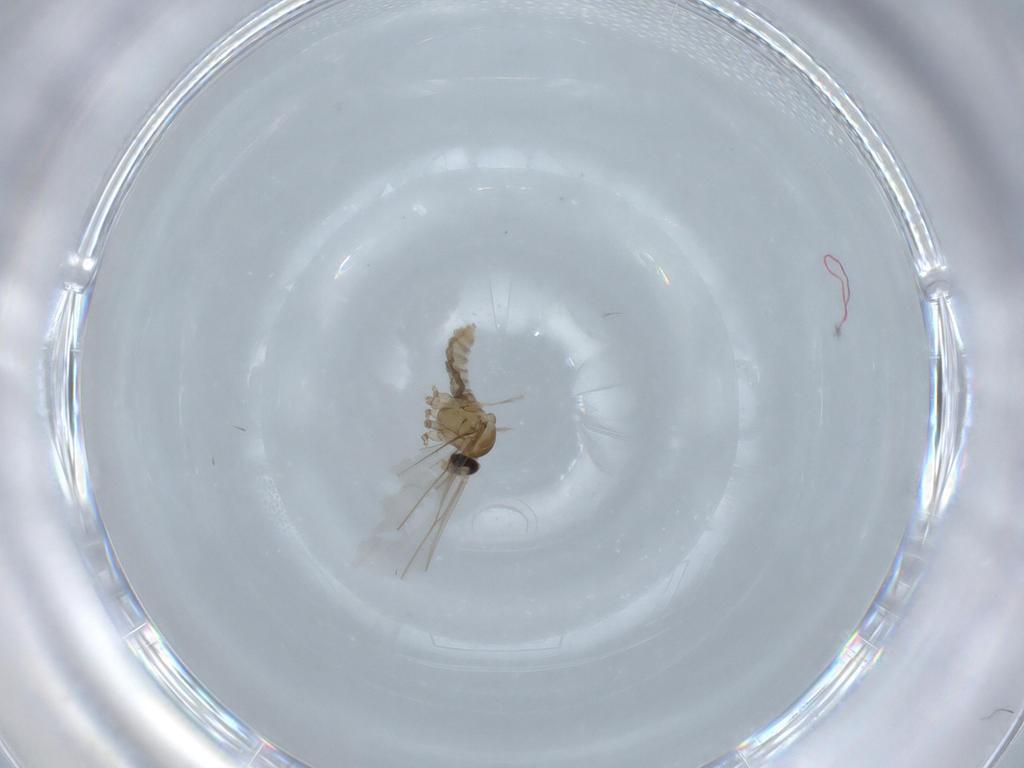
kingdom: Animalia
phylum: Arthropoda
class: Insecta
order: Diptera
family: Cecidomyiidae
